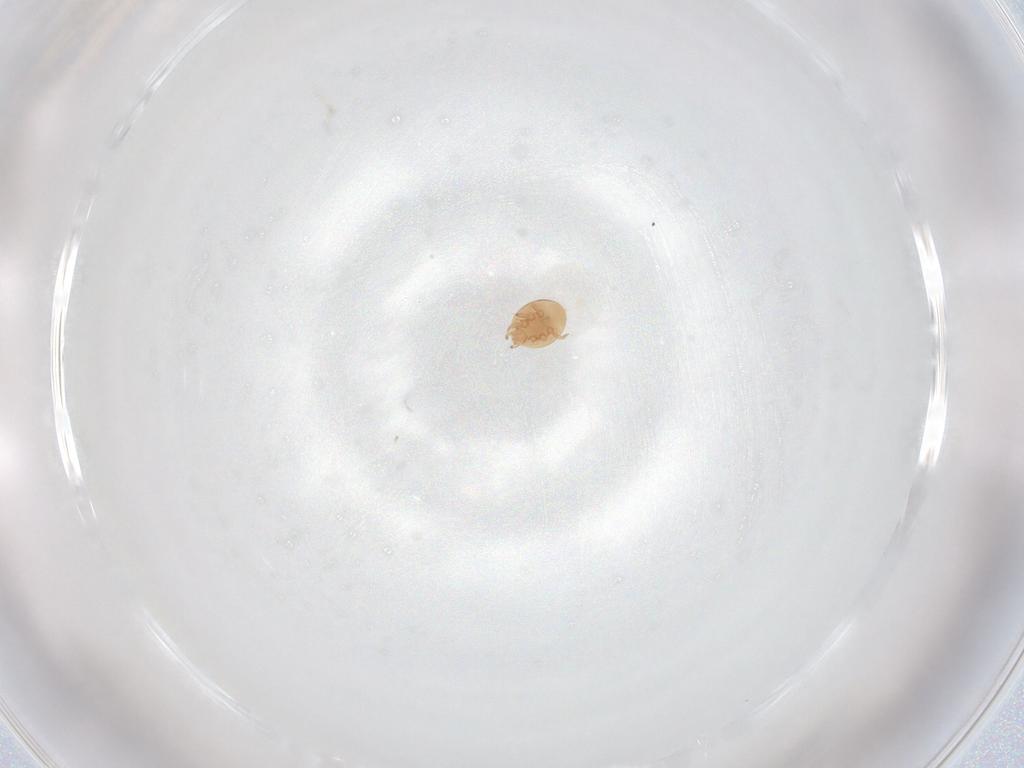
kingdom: Animalia
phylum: Arthropoda
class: Arachnida
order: Mesostigmata
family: Trematuridae
